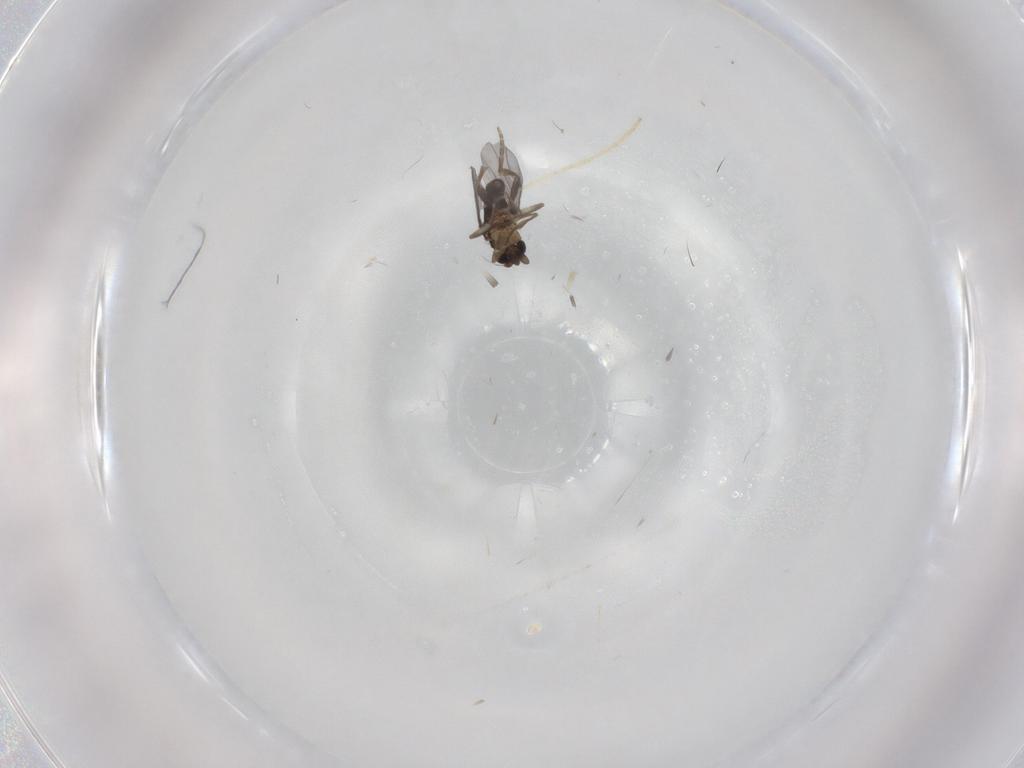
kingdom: Animalia
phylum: Arthropoda
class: Insecta
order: Diptera
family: Chironomidae
